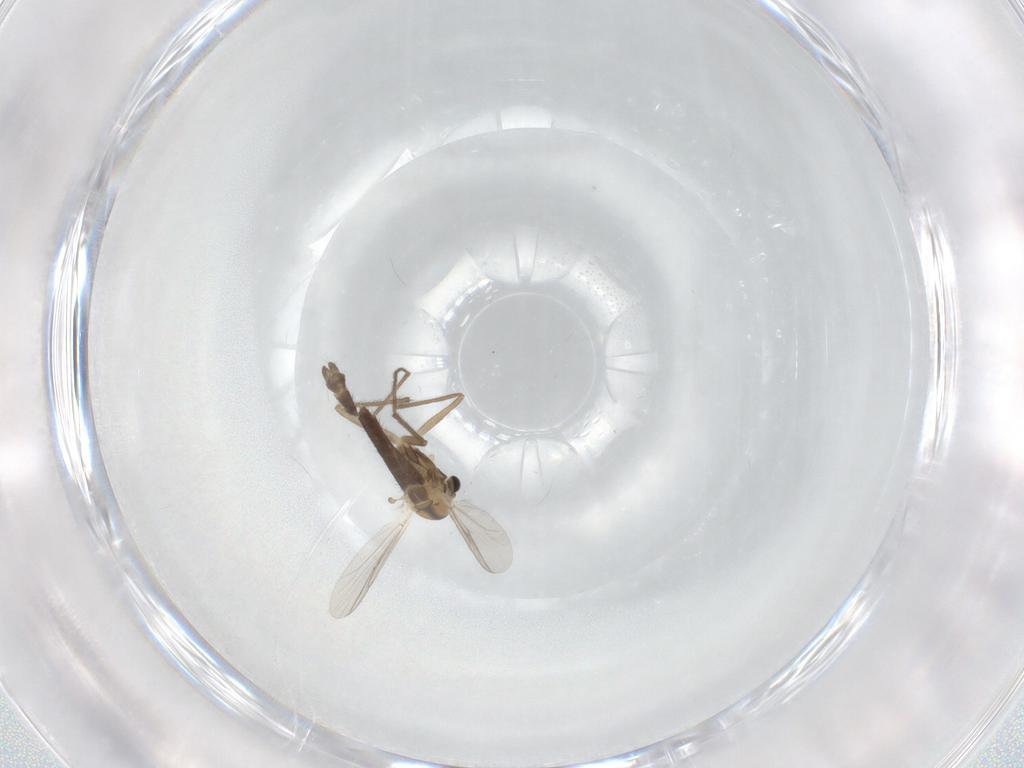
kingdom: Animalia
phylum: Arthropoda
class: Insecta
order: Diptera
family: Chironomidae
